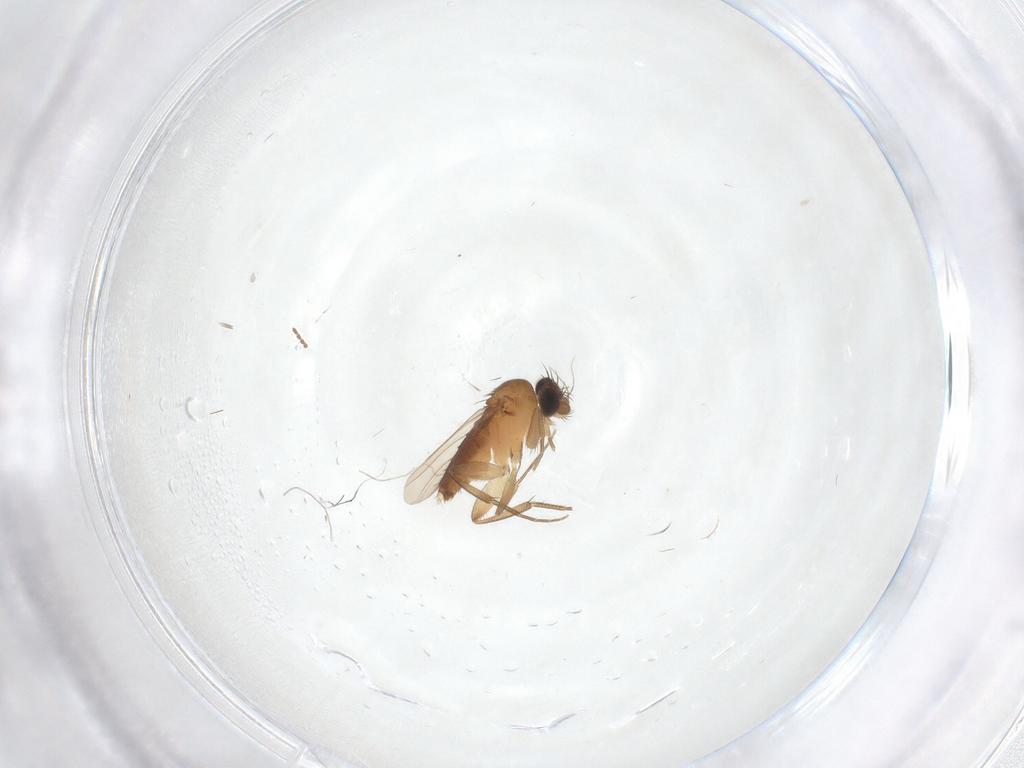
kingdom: Animalia
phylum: Arthropoda
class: Insecta
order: Diptera
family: Phoridae
